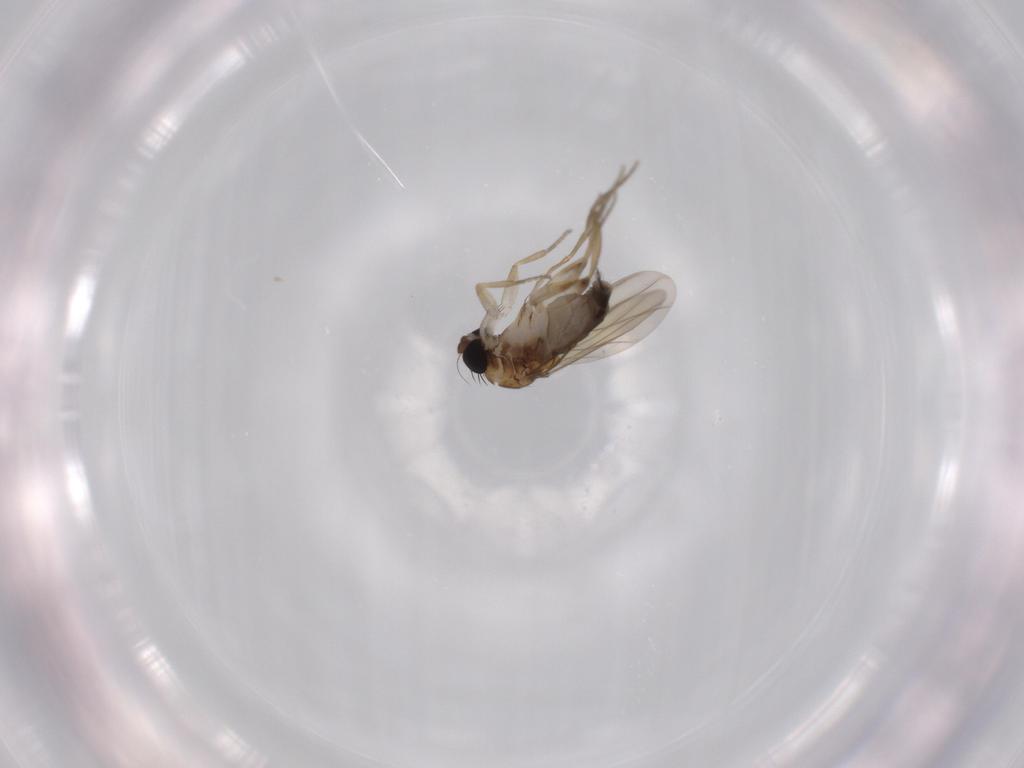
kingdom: Animalia
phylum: Arthropoda
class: Insecta
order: Diptera
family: Phoridae
